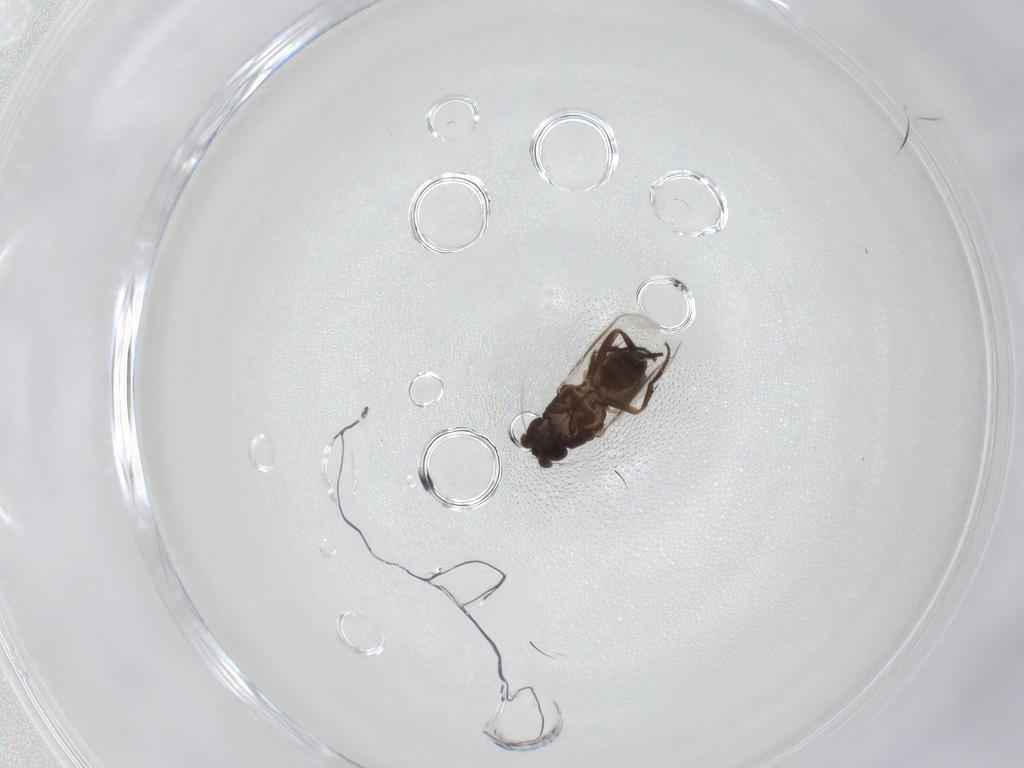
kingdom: Animalia
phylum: Arthropoda
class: Insecta
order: Diptera
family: Sphaeroceridae
